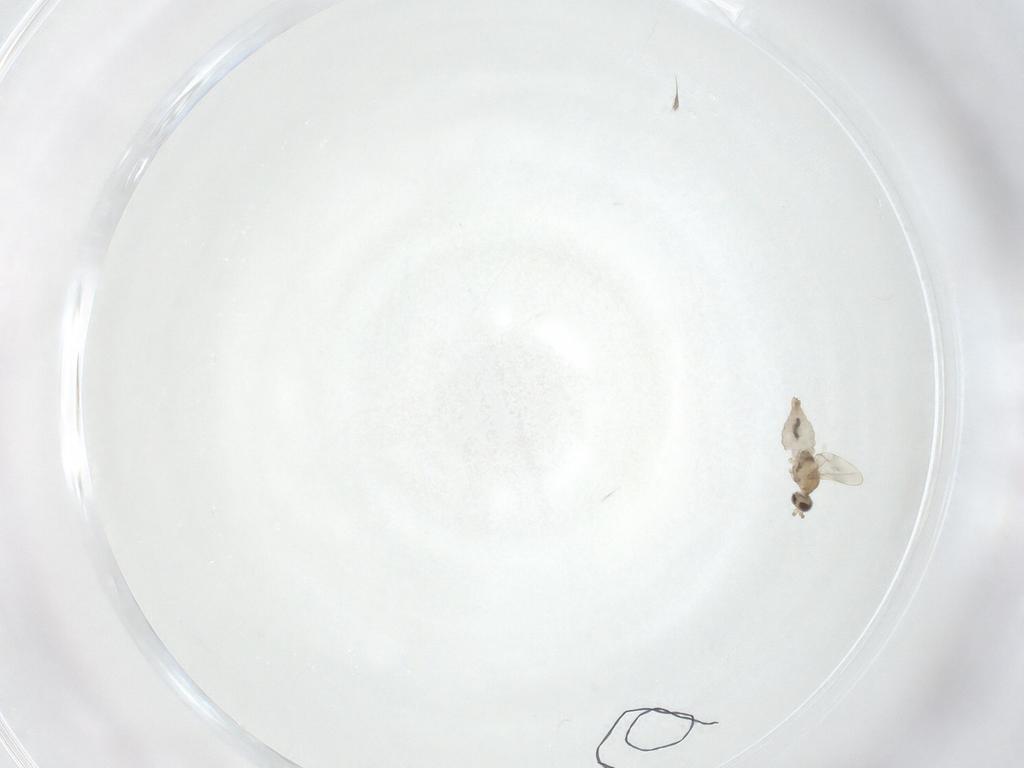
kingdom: Animalia
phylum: Arthropoda
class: Insecta
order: Diptera
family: Cecidomyiidae
